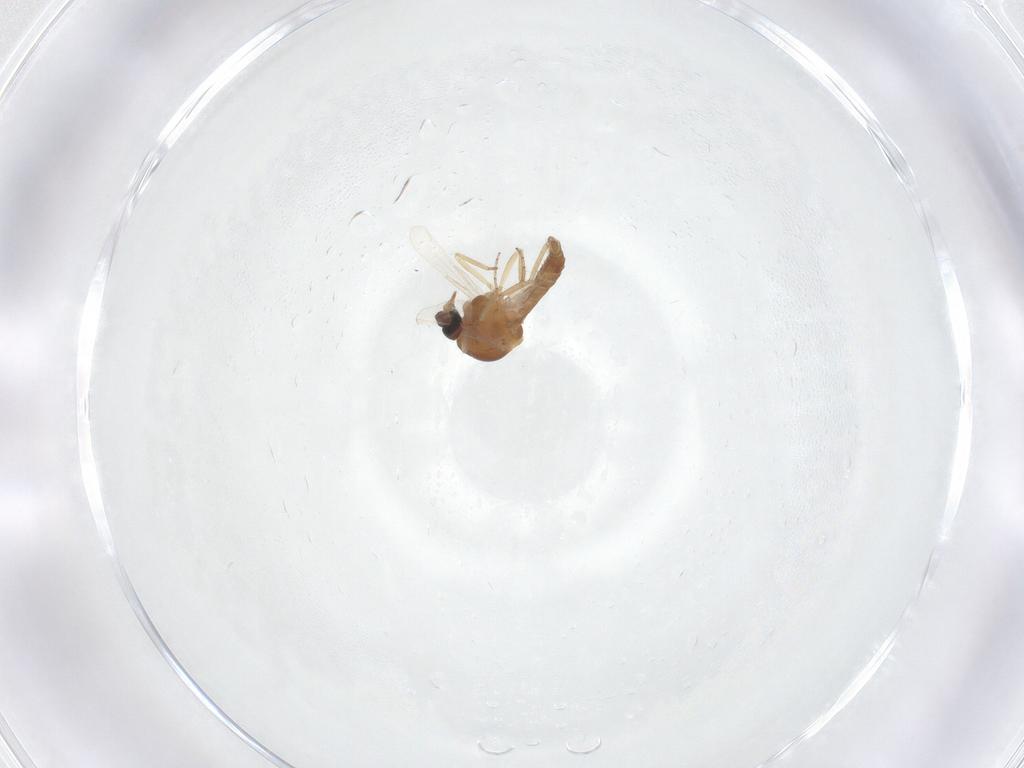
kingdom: Animalia
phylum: Arthropoda
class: Insecta
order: Diptera
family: Ceratopogonidae
